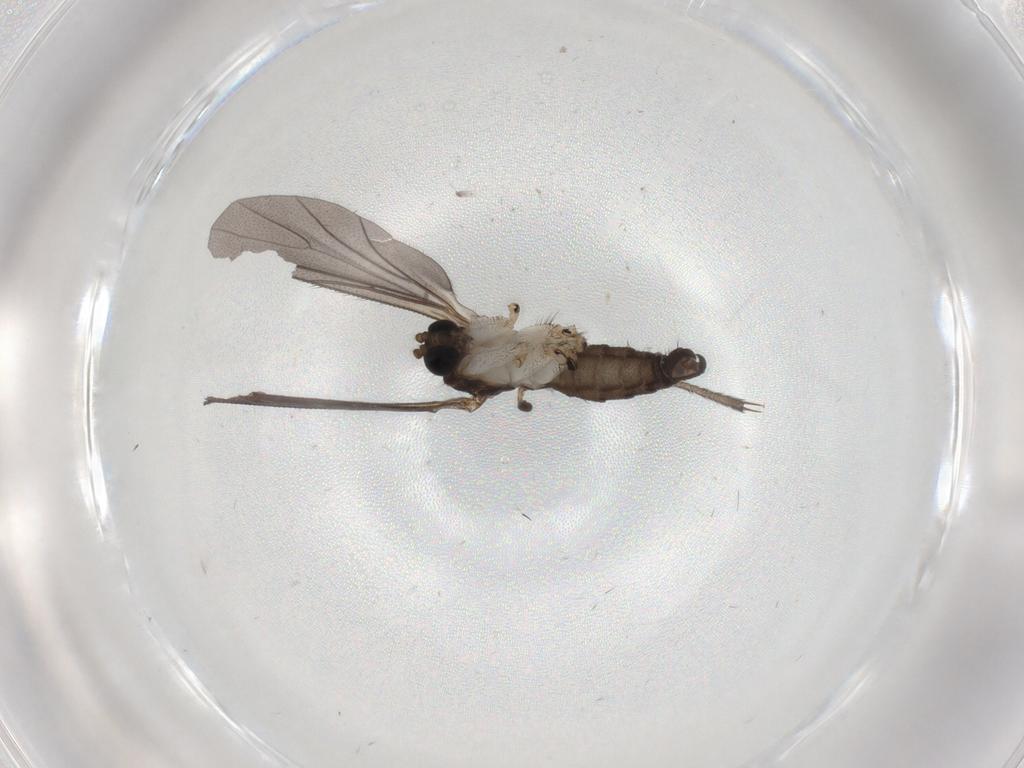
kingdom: Animalia
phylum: Arthropoda
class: Insecta
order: Diptera
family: Sciaridae
